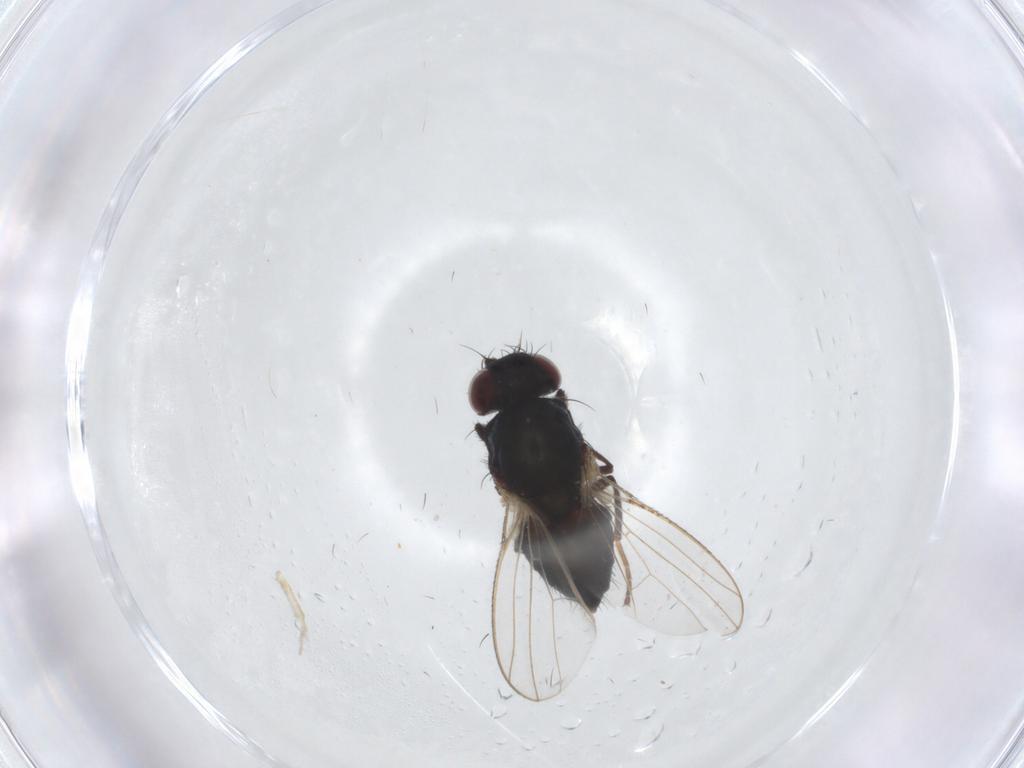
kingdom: Animalia
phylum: Arthropoda
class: Insecta
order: Diptera
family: Carnidae
